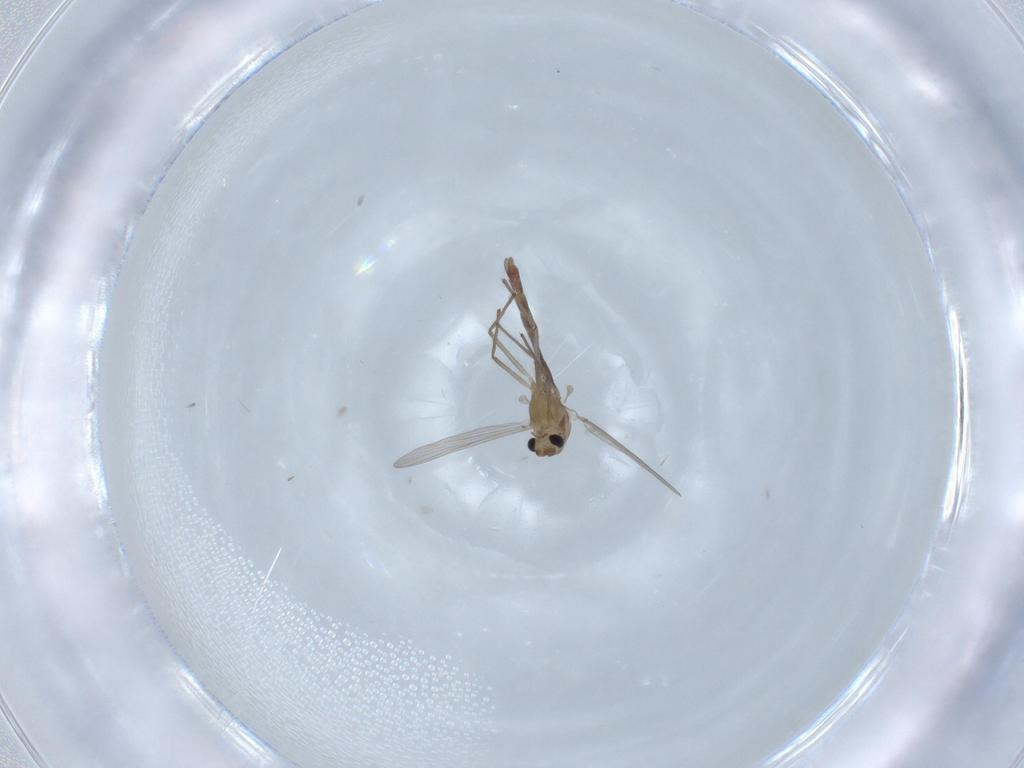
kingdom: Animalia
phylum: Arthropoda
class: Insecta
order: Diptera
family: Chironomidae
